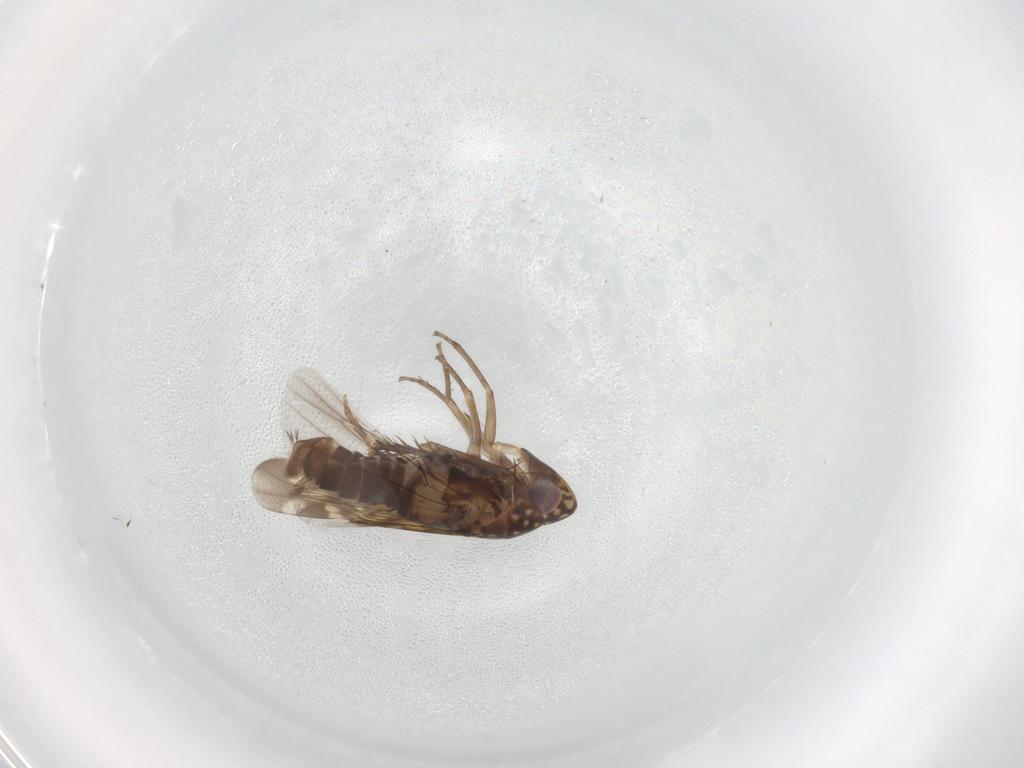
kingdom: Animalia
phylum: Arthropoda
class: Insecta
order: Hemiptera
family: Cicadellidae
